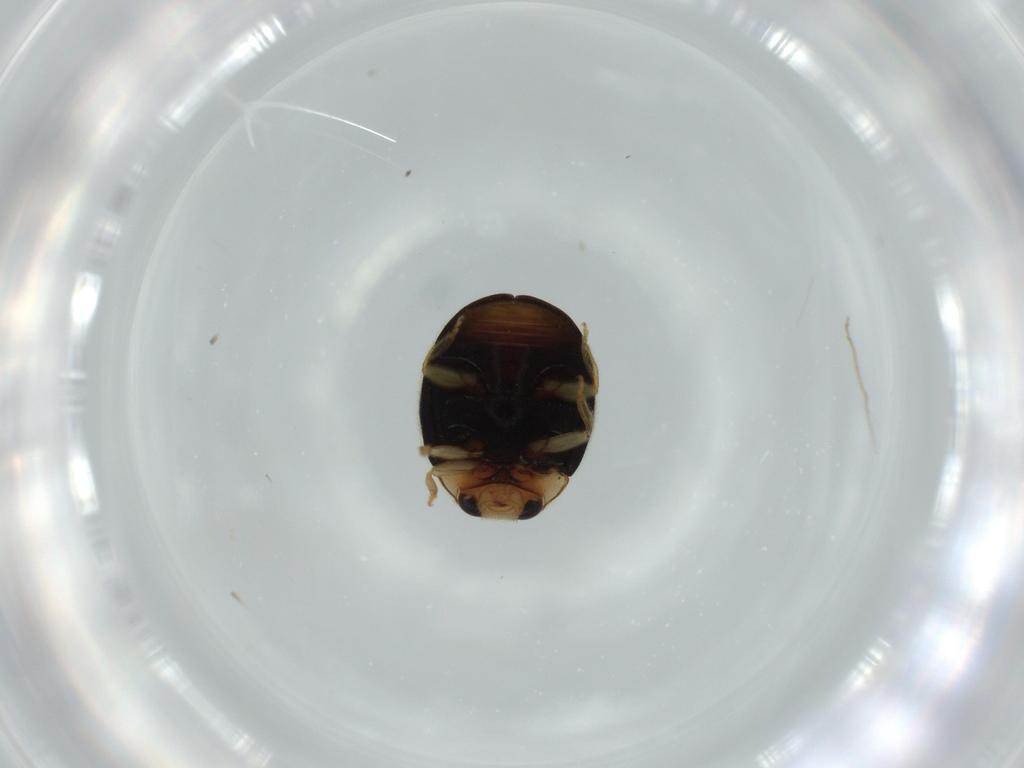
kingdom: Animalia
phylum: Arthropoda
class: Insecta
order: Coleoptera
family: Coccinellidae
